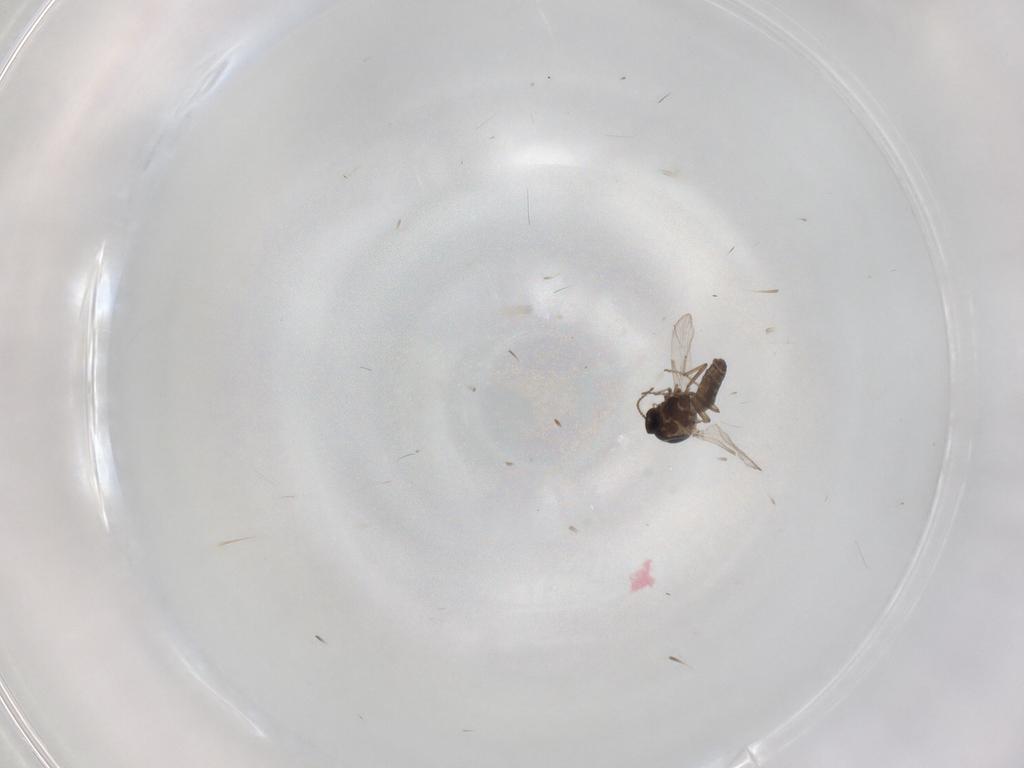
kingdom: Animalia
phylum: Arthropoda
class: Insecta
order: Diptera
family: Ceratopogonidae
